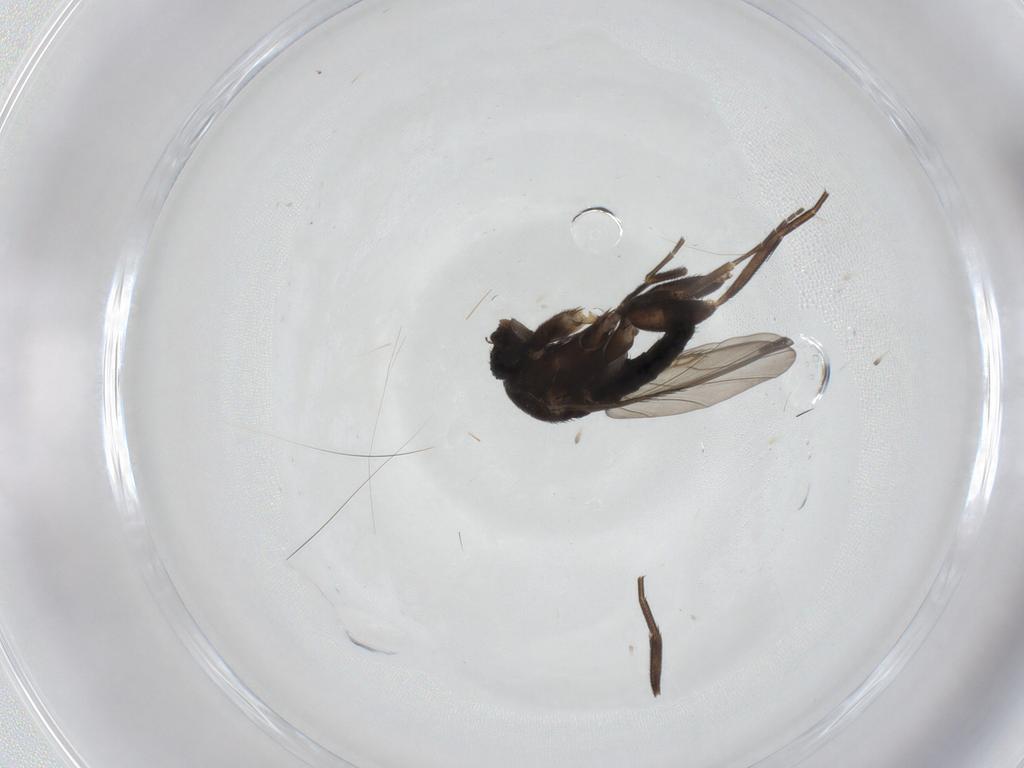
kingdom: Animalia
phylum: Arthropoda
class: Insecta
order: Diptera
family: Phoridae
